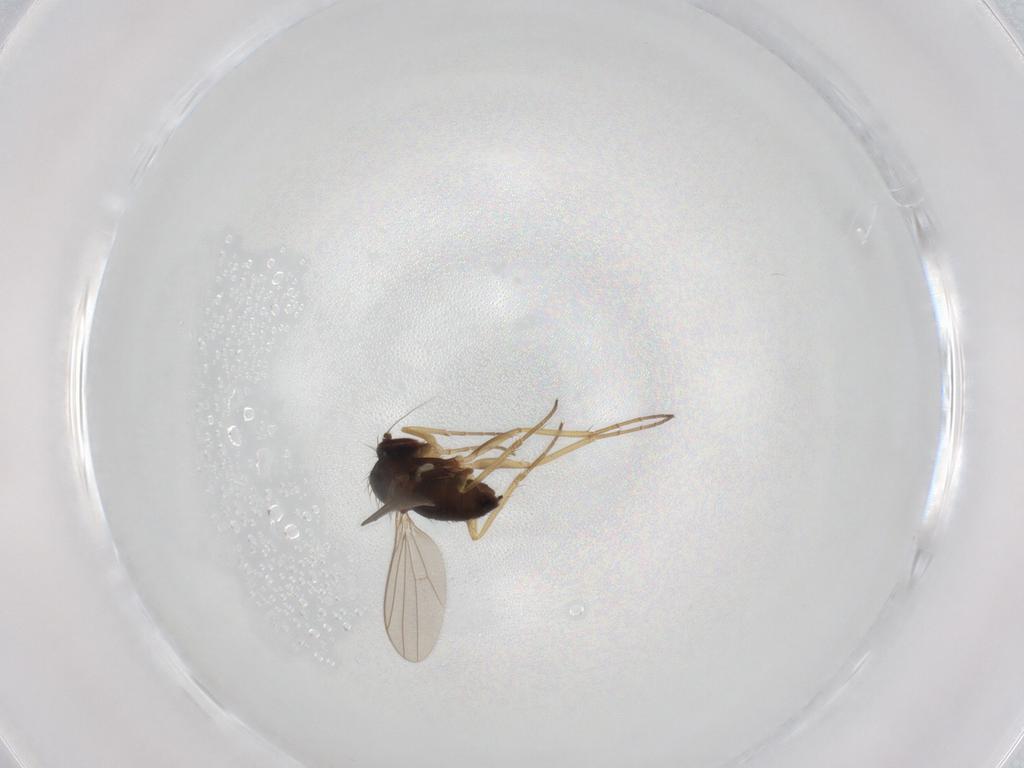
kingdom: Animalia
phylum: Arthropoda
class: Insecta
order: Diptera
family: Dolichopodidae
